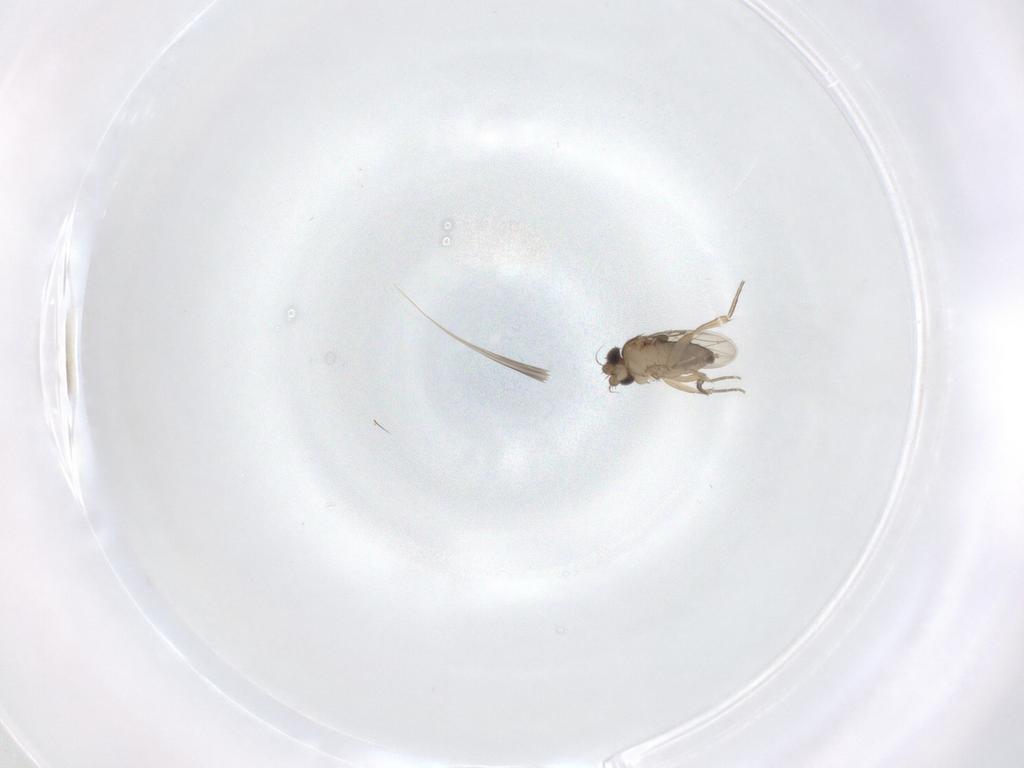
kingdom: Animalia
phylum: Arthropoda
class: Insecta
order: Diptera
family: Phoridae
